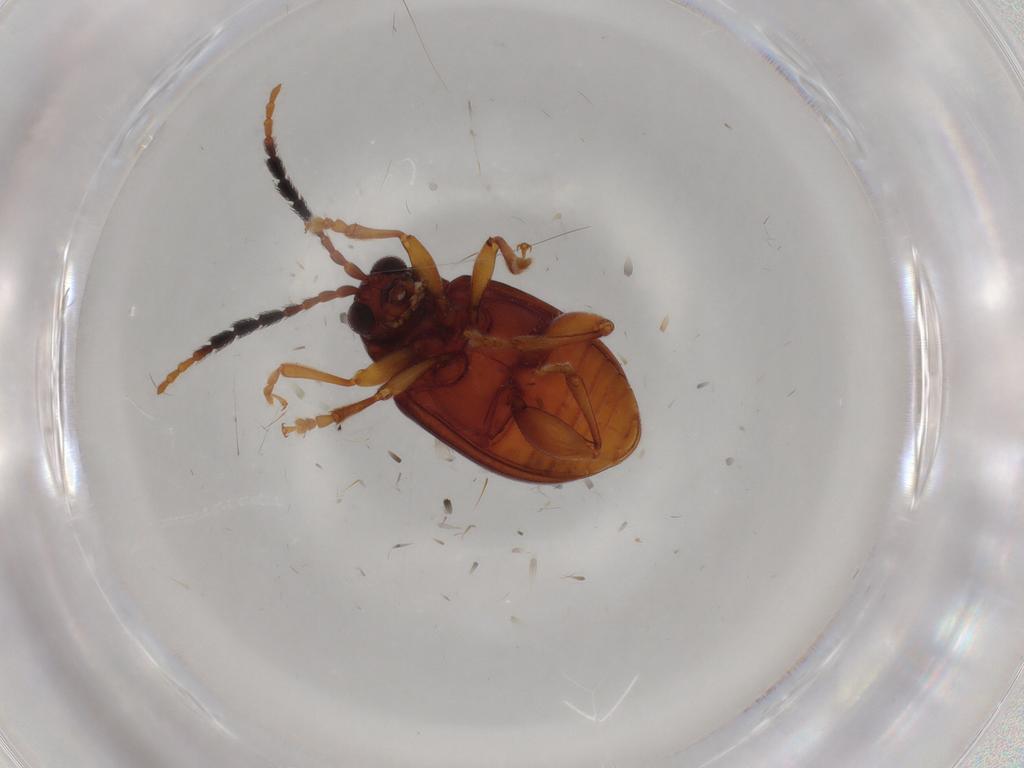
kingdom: Animalia
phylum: Arthropoda
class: Insecta
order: Coleoptera
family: Chrysomelidae
